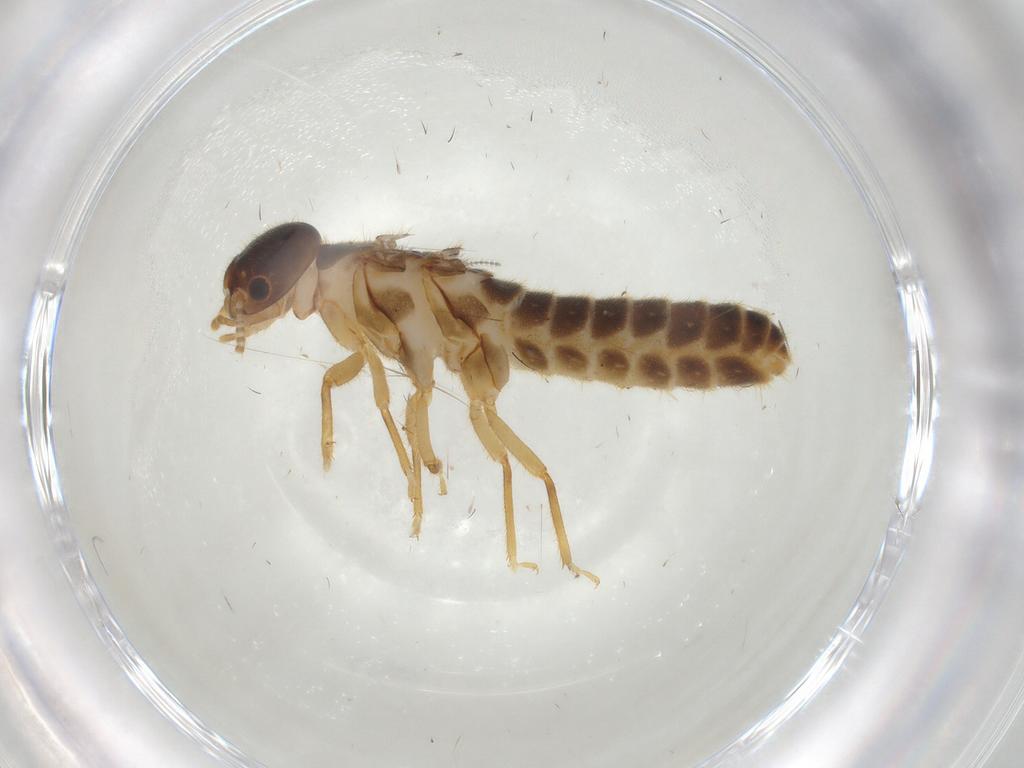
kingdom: Animalia
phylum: Arthropoda
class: Insecta
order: Blattodea
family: Termitidae
